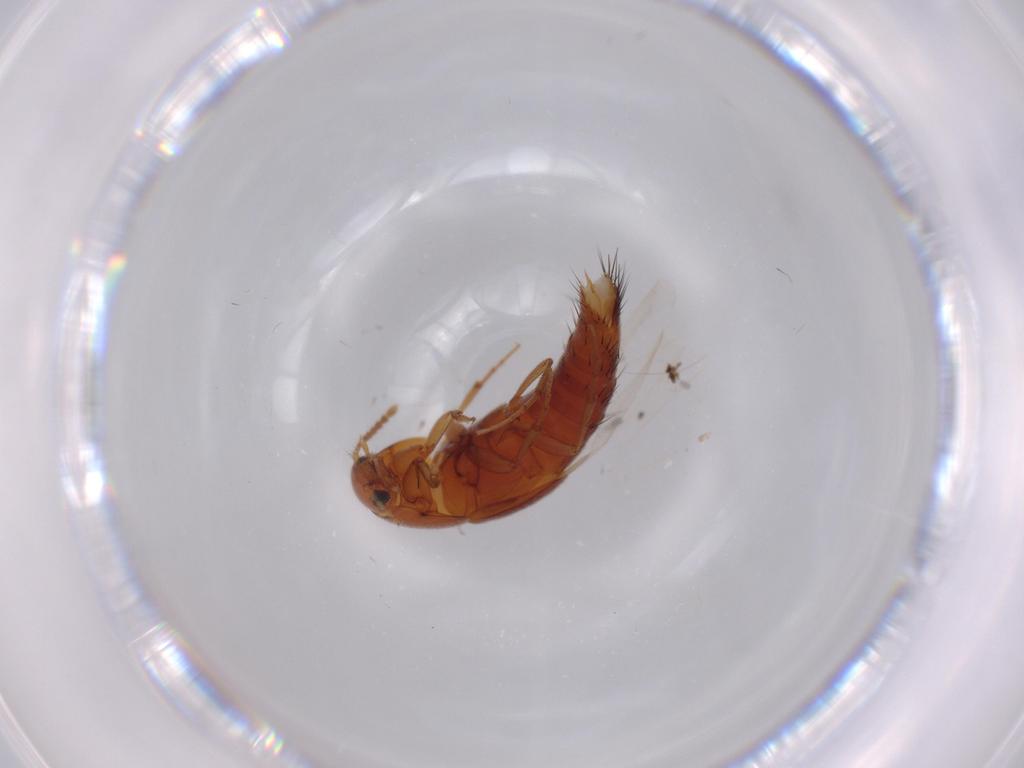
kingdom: Animalia
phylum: Arthropoda
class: Insecta
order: Coleoptera
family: Staphylinidae
